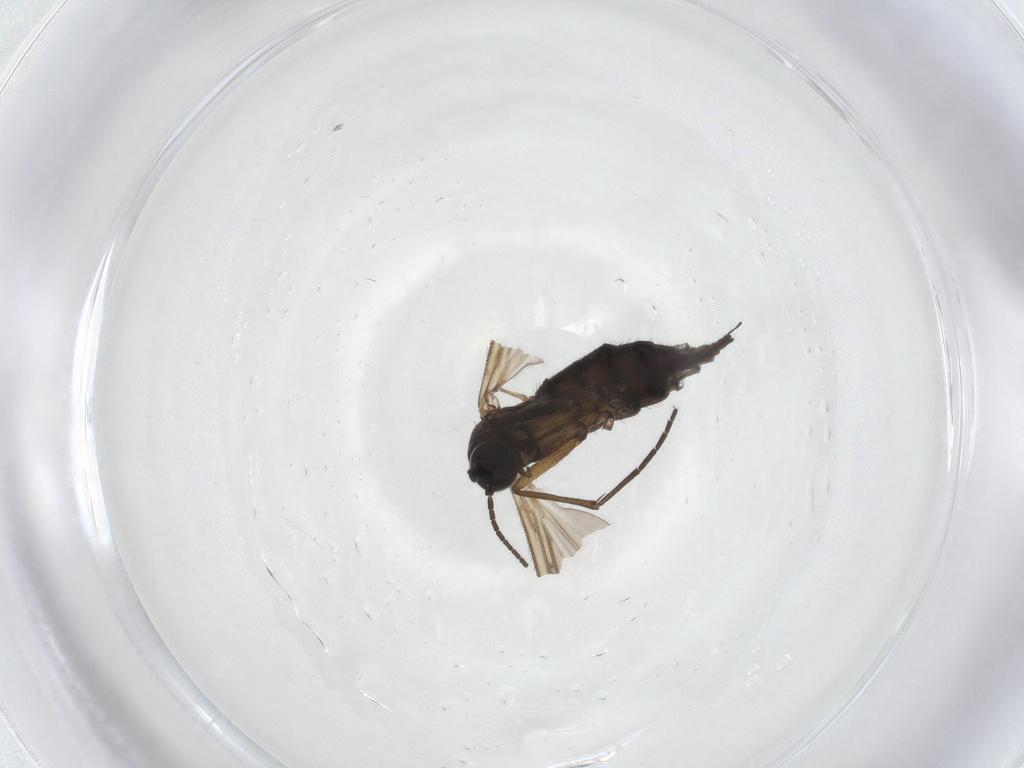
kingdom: Animalia
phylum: Arthropoda
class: Insecta
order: Diptera
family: Sciaridae
